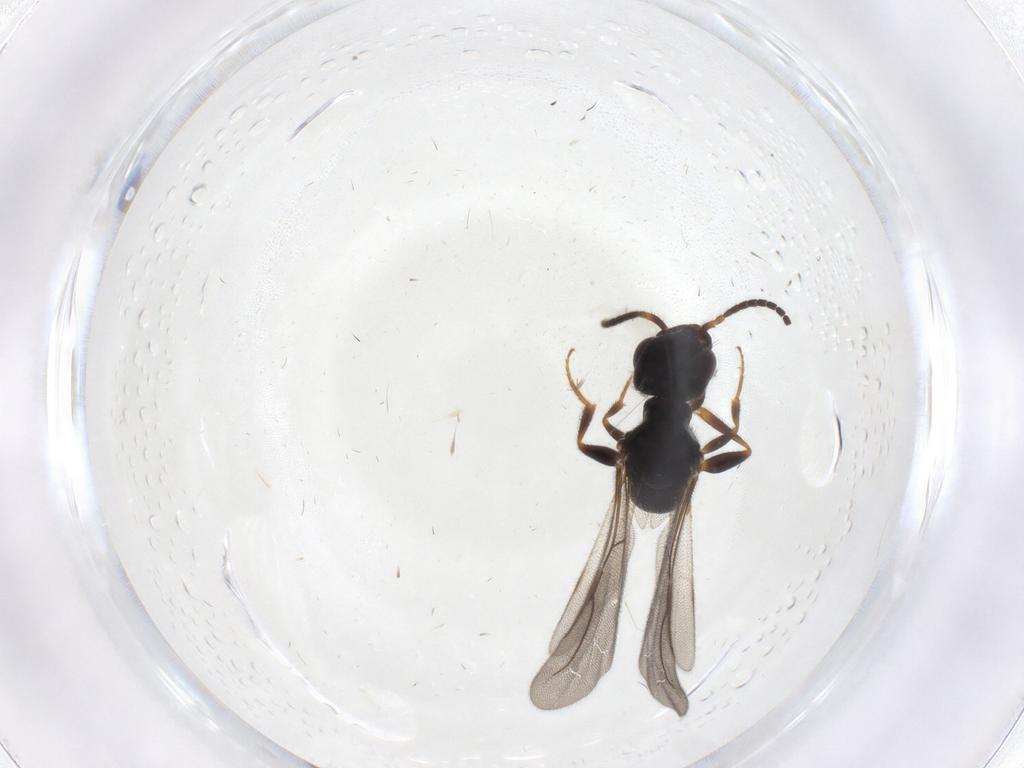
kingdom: Animalia
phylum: Arthropoda
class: Insecta
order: Hymenoptera
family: Bethylidae
